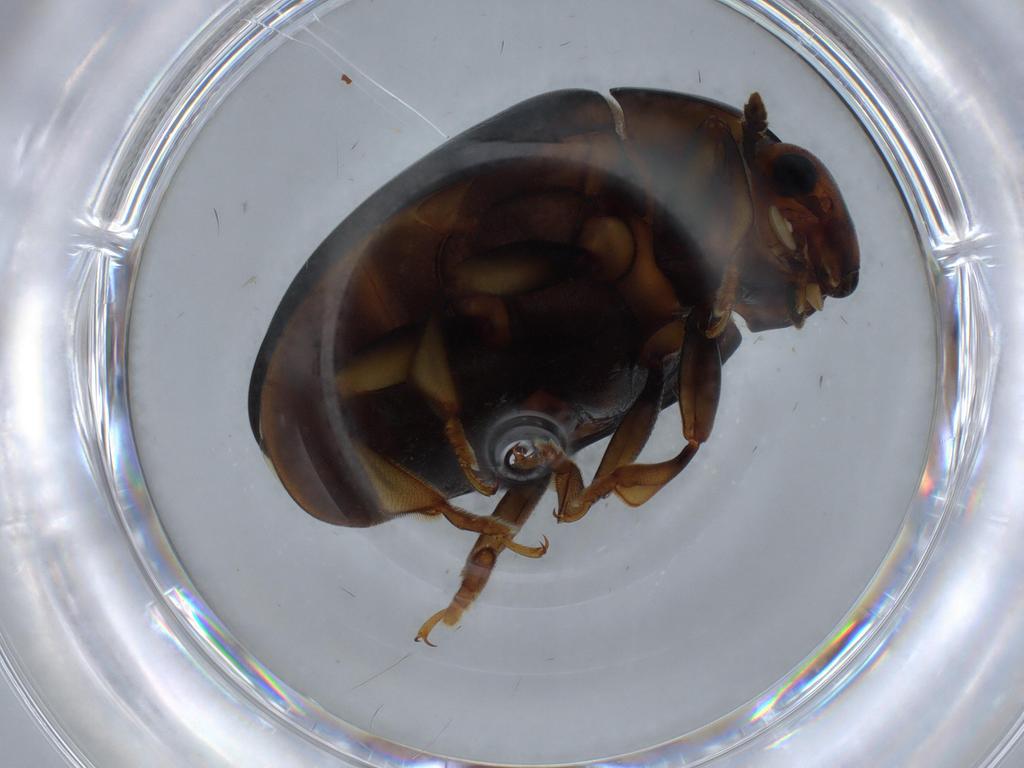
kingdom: Animalia
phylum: Arthropoda
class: Insecta
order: Coleoptera
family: Erotylidae
